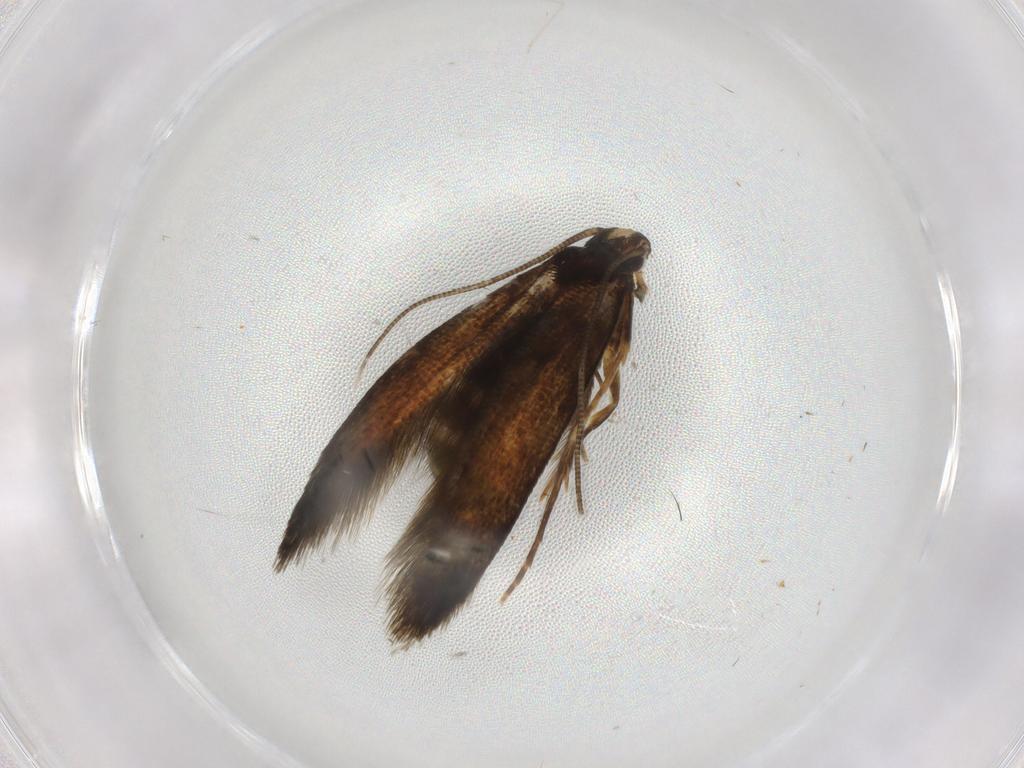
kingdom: Animalia
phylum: Arthropoda
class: Insecta
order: Lepidoptera
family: Tineidae
